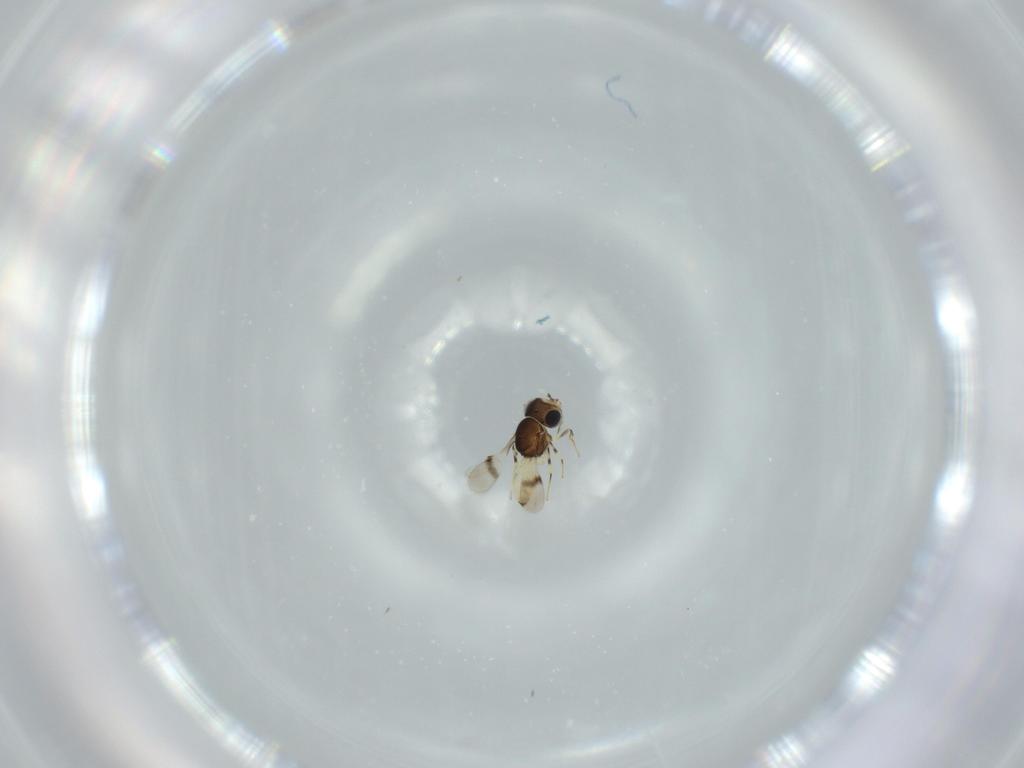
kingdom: Animalia
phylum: Arthropoda
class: Insecta
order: Hymenoptera
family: Scelionidae
